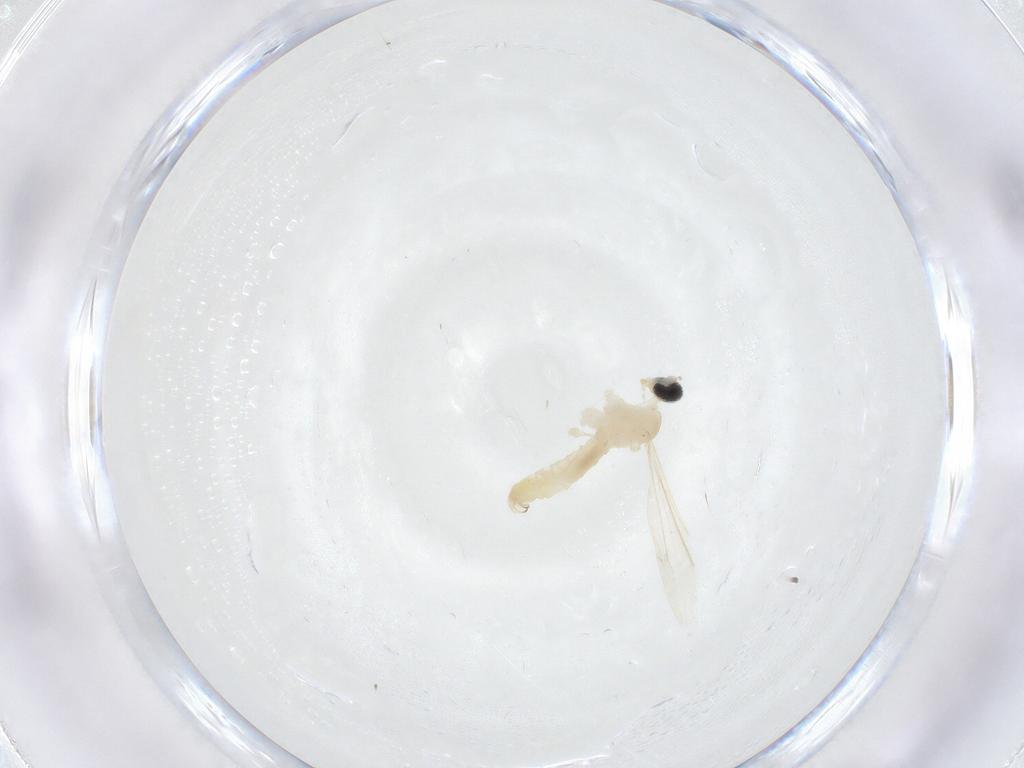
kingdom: Animalia
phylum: Arthropoda
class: Insecta
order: Diptera
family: Cecidomyiidae
